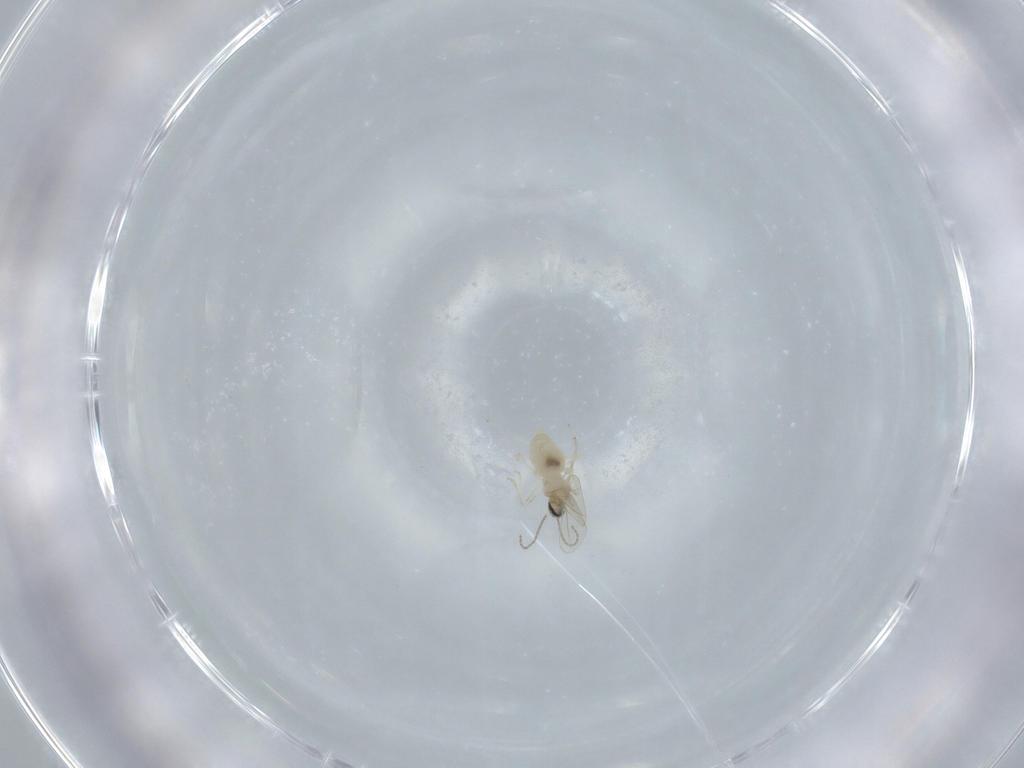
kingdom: Animalia
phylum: Arthropoda
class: Insecta
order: Diptera
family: Cecidomyiidae
